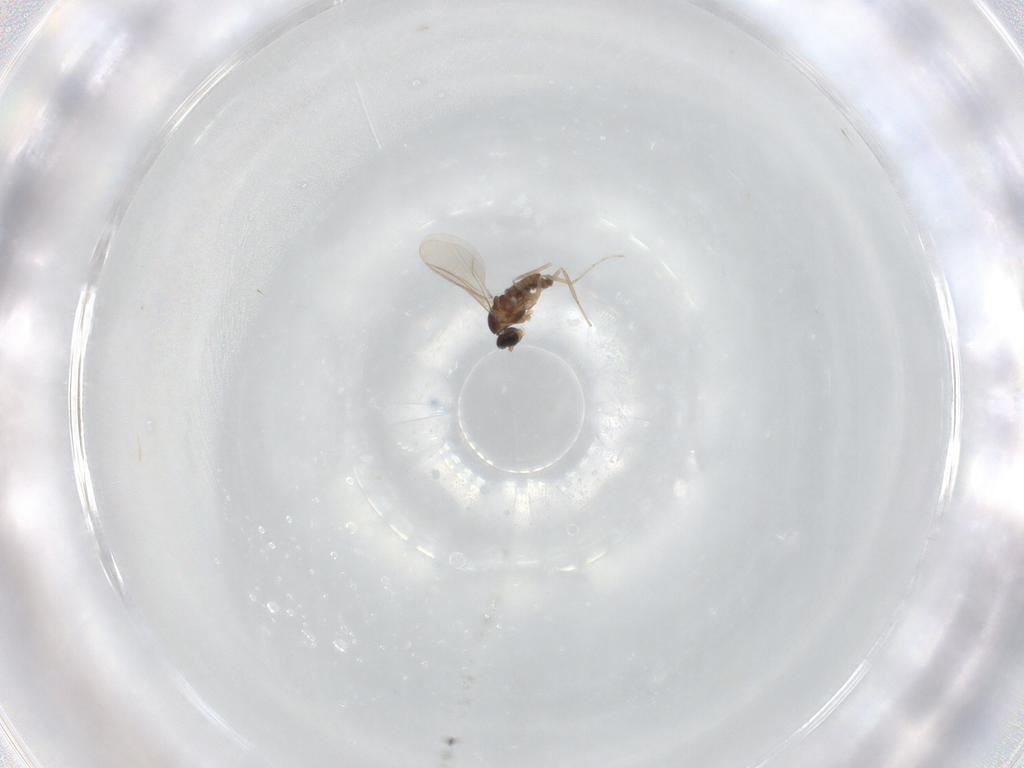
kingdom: Animalia
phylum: Arthropoda
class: Insecta
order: Diptera
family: Cecidomyiidae
